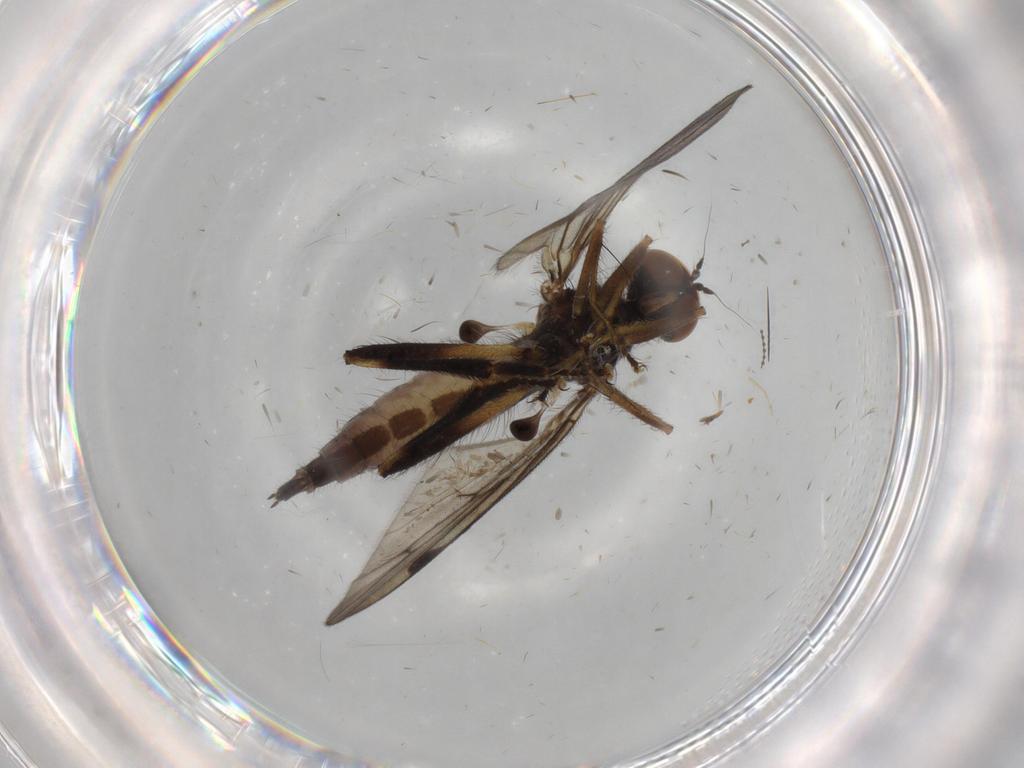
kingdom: Animalia
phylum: Arthropoda
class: Insecta
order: Diptera
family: Hybotidae
